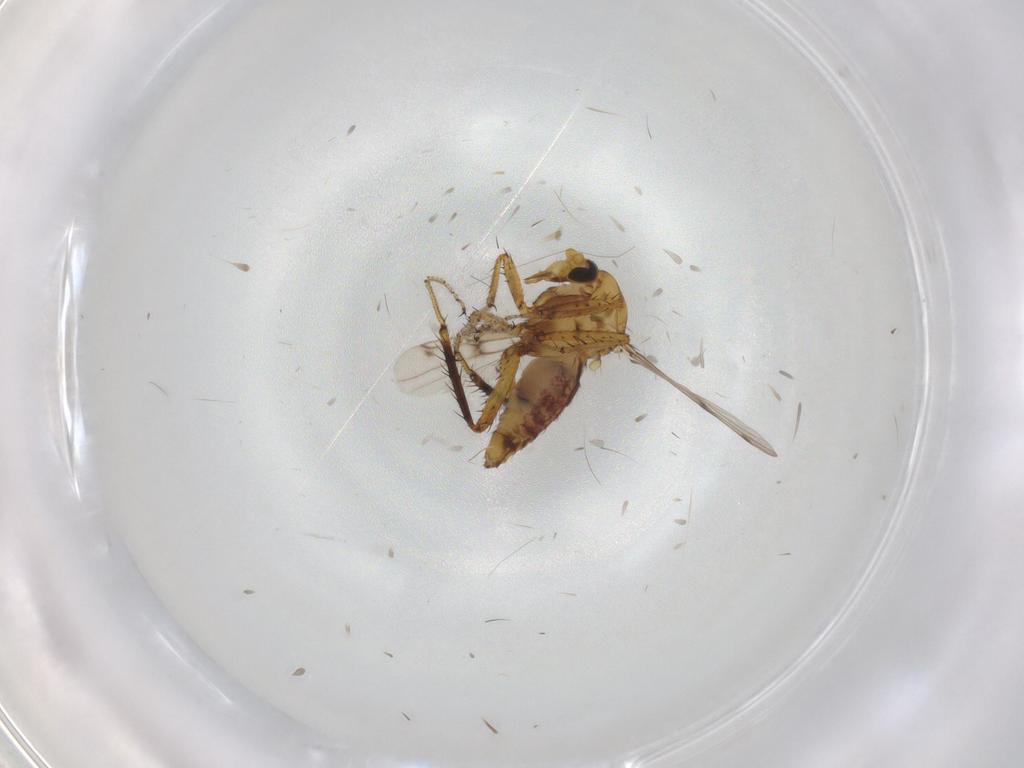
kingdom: Animalia
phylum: Arthropoda
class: Insecta
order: Diptera
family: Ceratopogonidae
